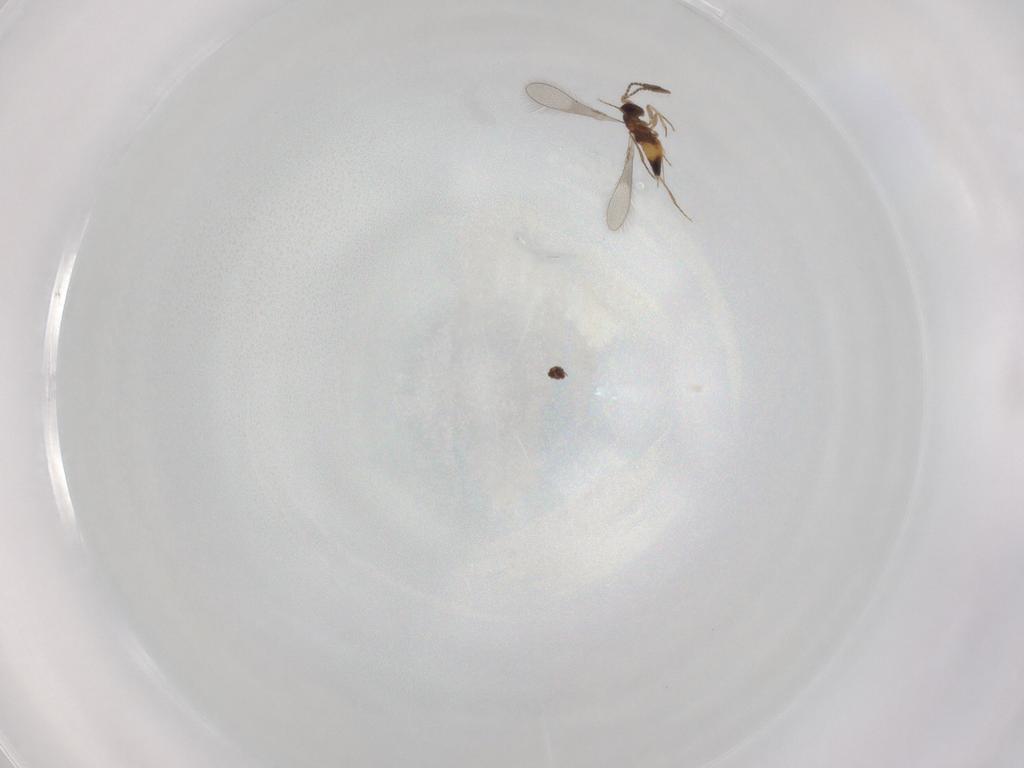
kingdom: Animalia
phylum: Arthropoda
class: Insecta
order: Hymenoptera
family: Mymaridae
